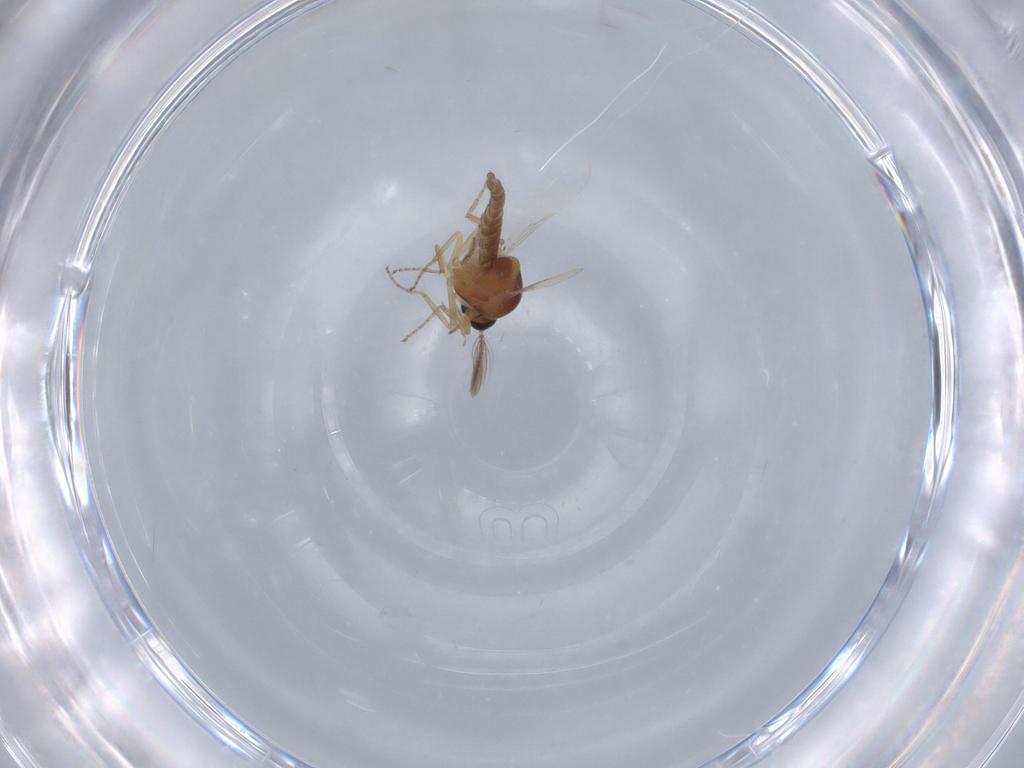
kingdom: Animalia
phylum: Arthropoda
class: Insecta
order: Diptera
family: Ceratopogonidae
